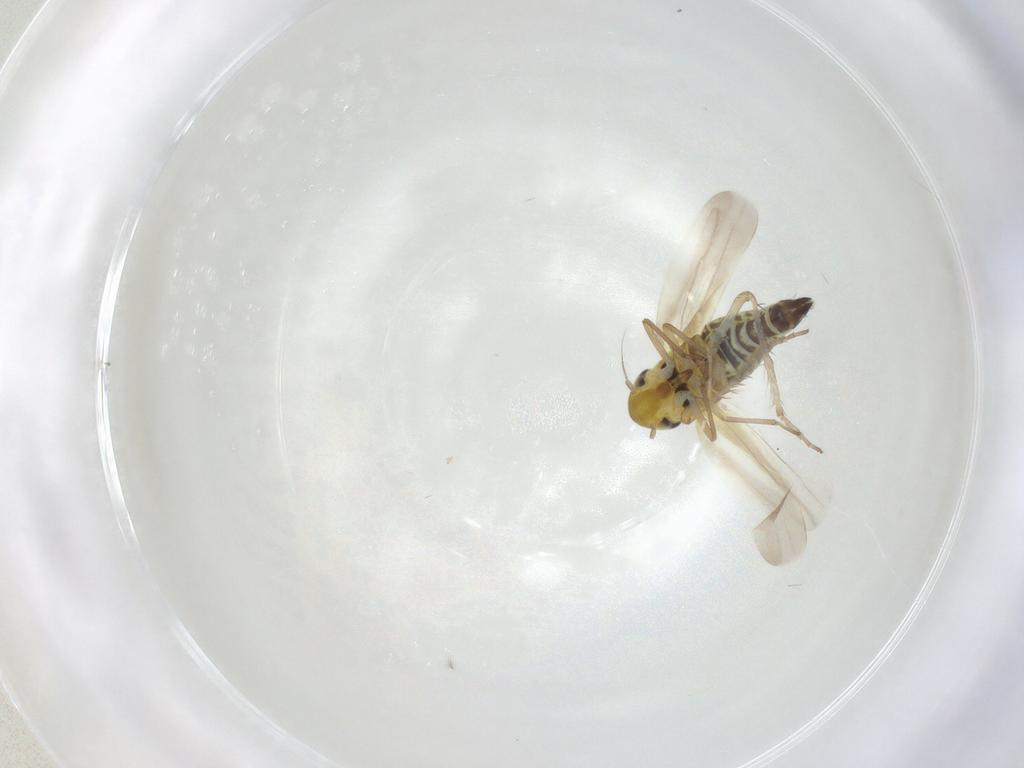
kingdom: Animalia
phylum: Arthropoda
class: Insecta
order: Hemiptera
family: Cicadellidae
